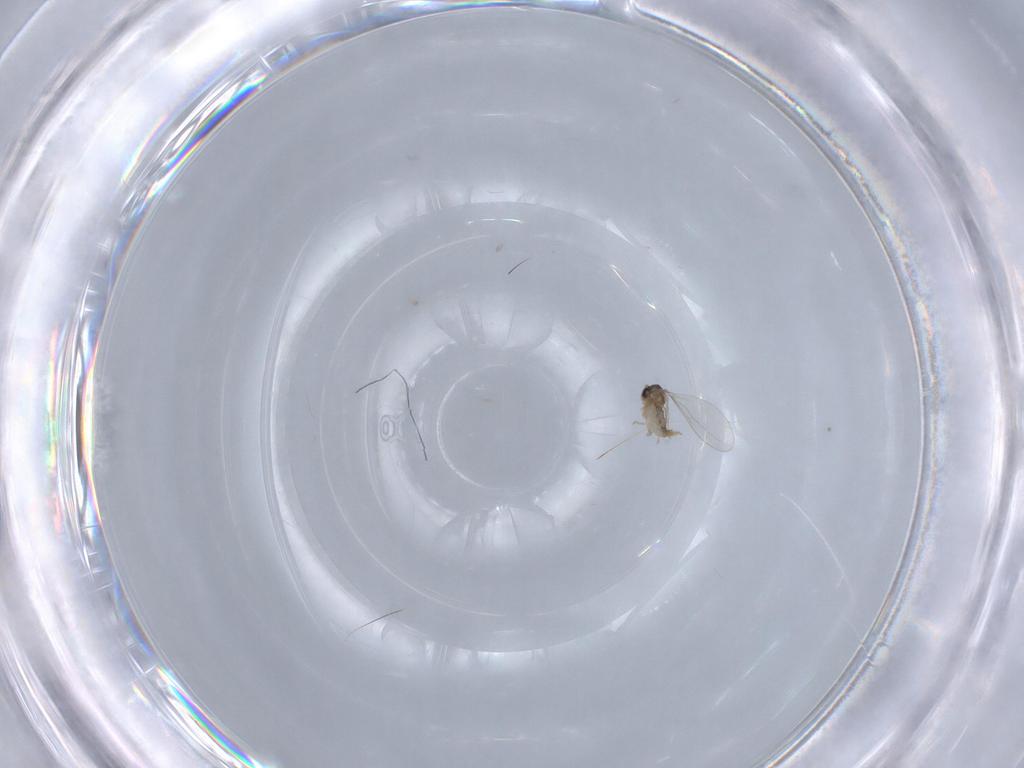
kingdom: Animalia
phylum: Arthropoda
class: Insecta
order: Diptera
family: Cecidomyiidae
